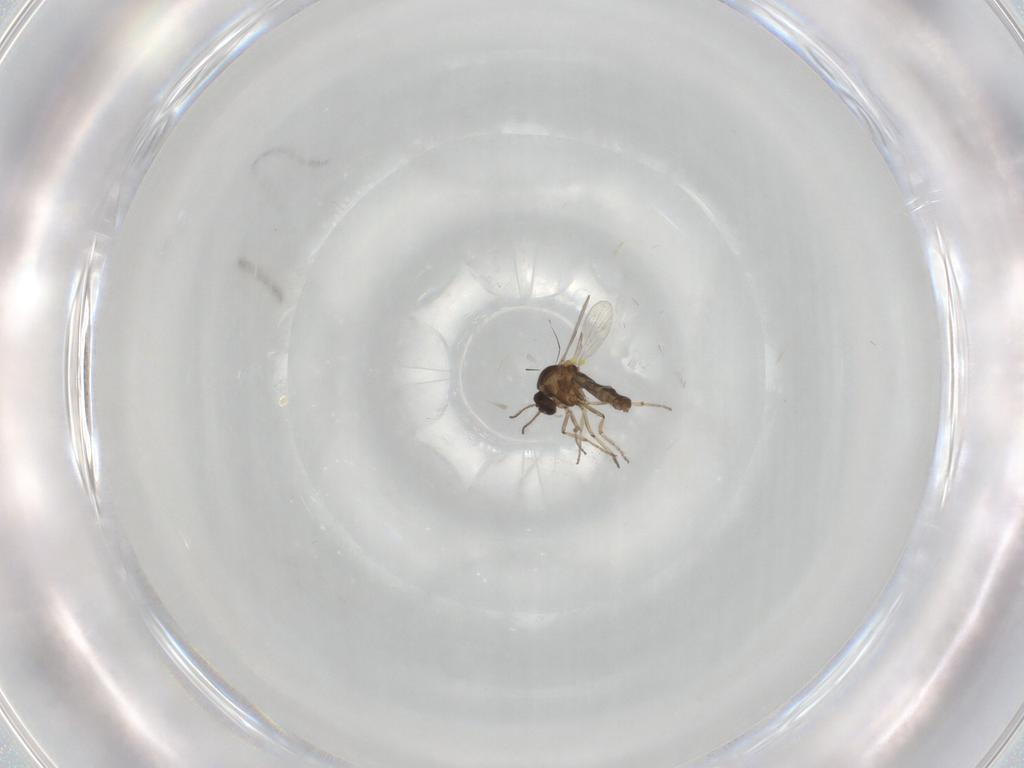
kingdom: Animalia
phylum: Arthropoda
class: Insecta
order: Diptera
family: Ceratopogonidae
